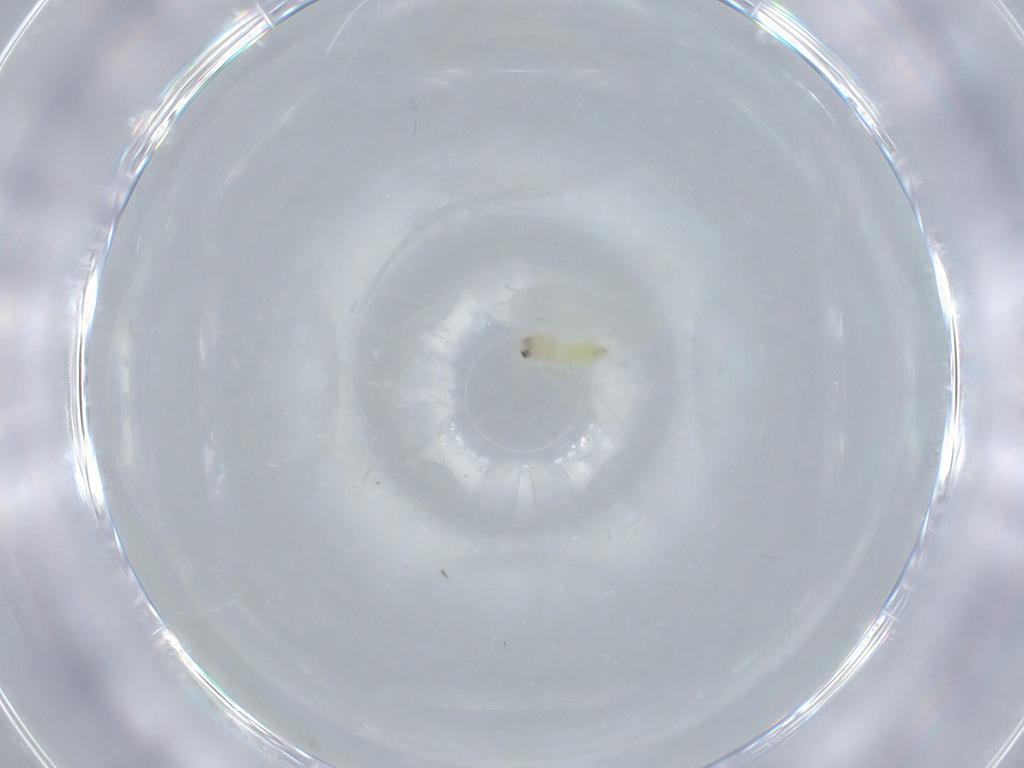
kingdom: Animalia
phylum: Arthropoda
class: Insecta
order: Hemiptera
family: Aleyrodidae
